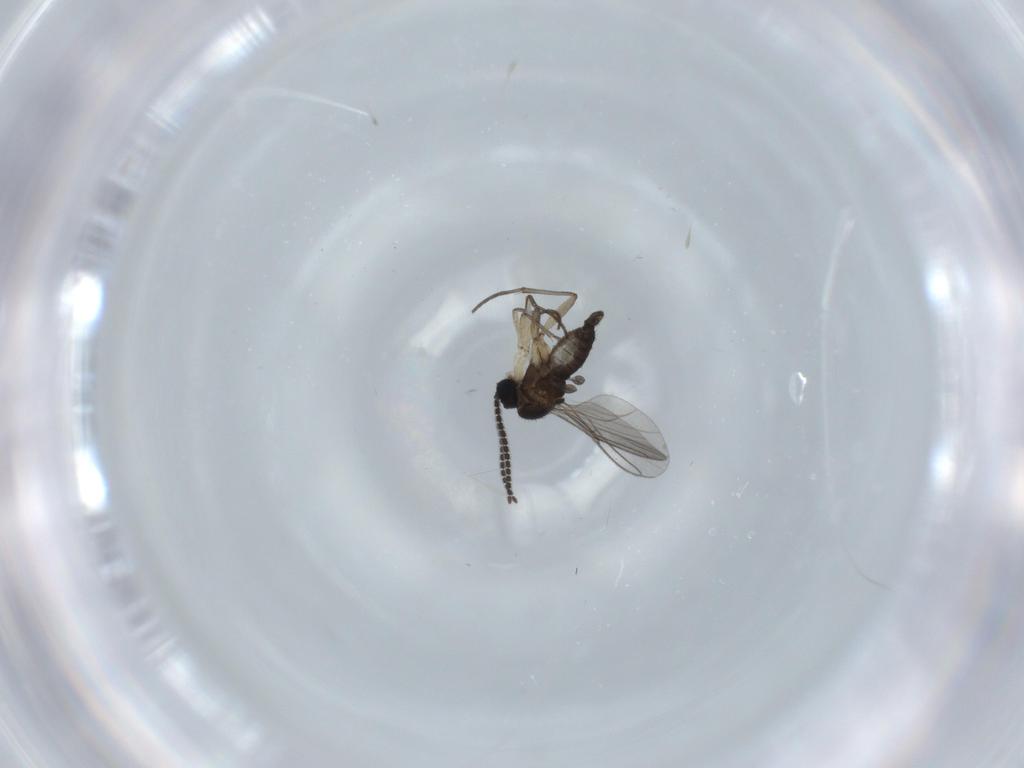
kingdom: Animalia
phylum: Arthropoda
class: Insecta
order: Diptera
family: Sciaridae
